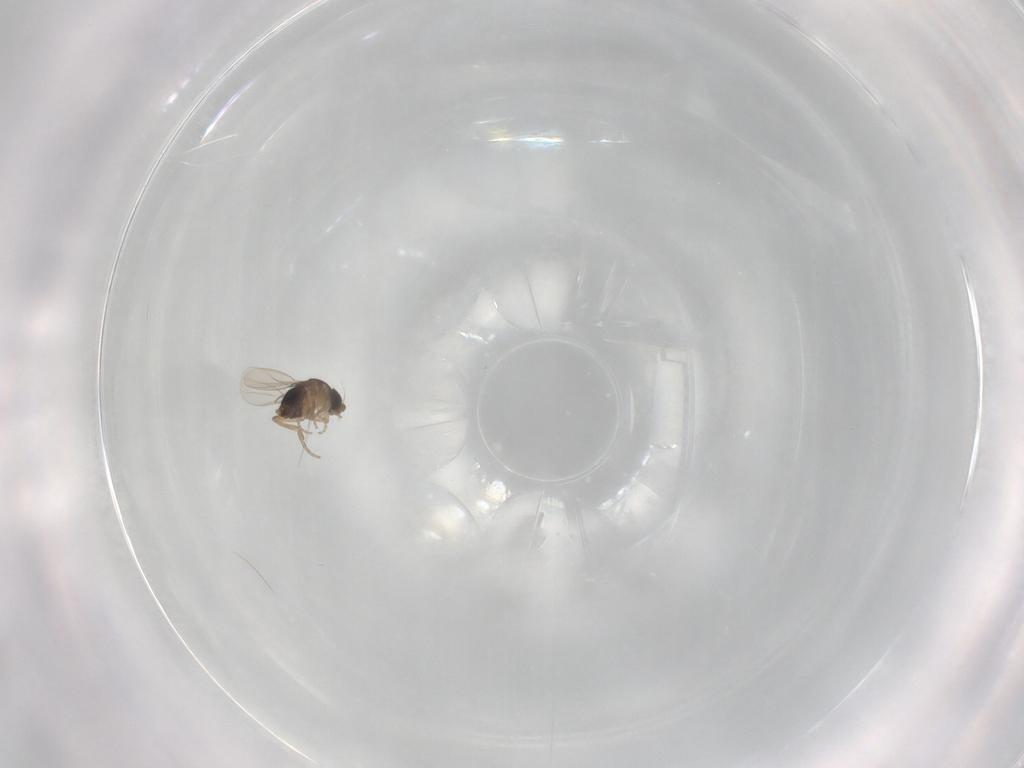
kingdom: Animalia
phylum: Arthropoda
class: Insecta
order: Diptera
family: Phoridae
